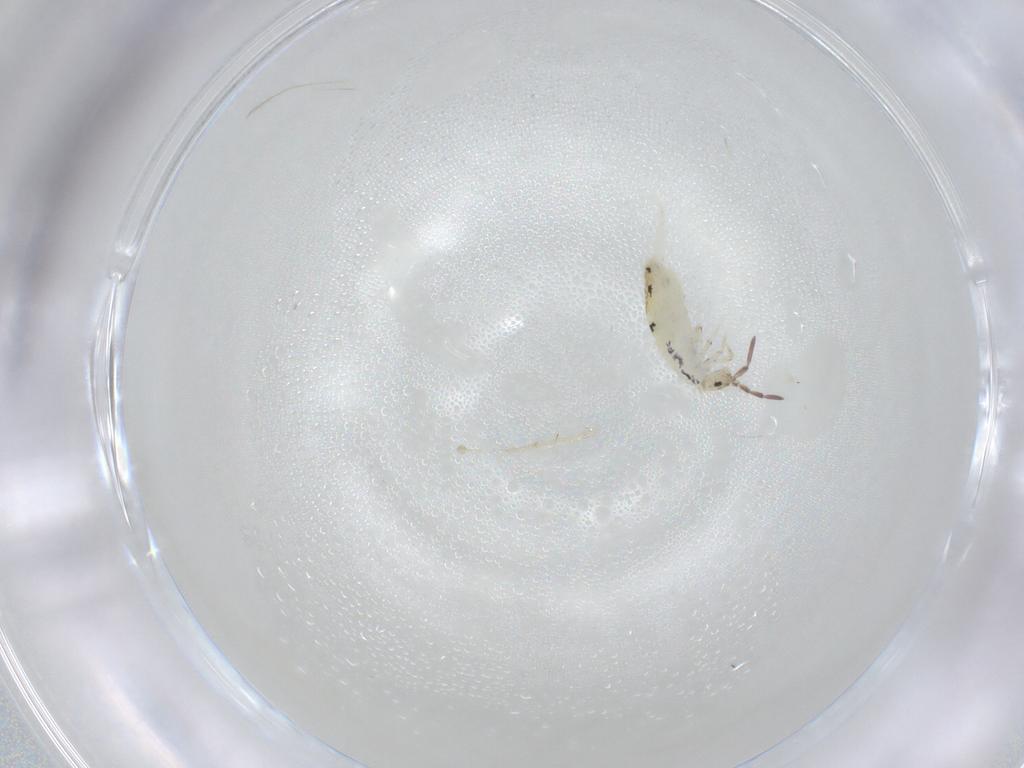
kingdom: Animalia
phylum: Arthropoda
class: Collembola
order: Entomobryomorpha
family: Entomobryidae
